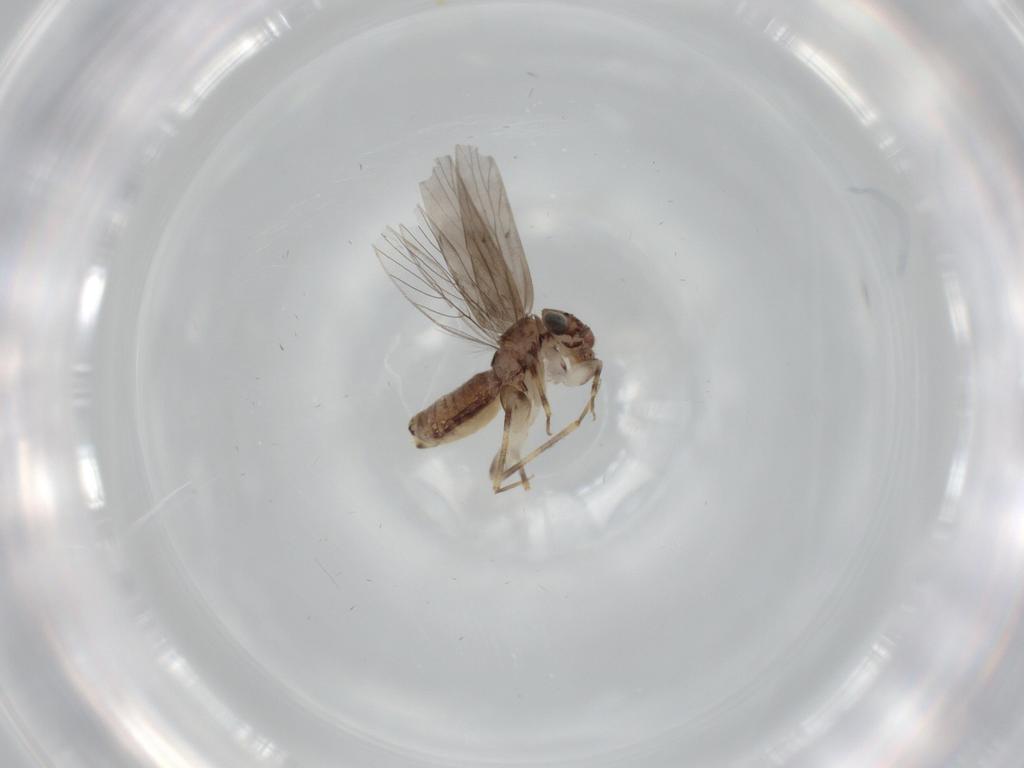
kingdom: Animalia
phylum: Arthropoda
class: Insecta
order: Psocodea
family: Lepidopsocidae
